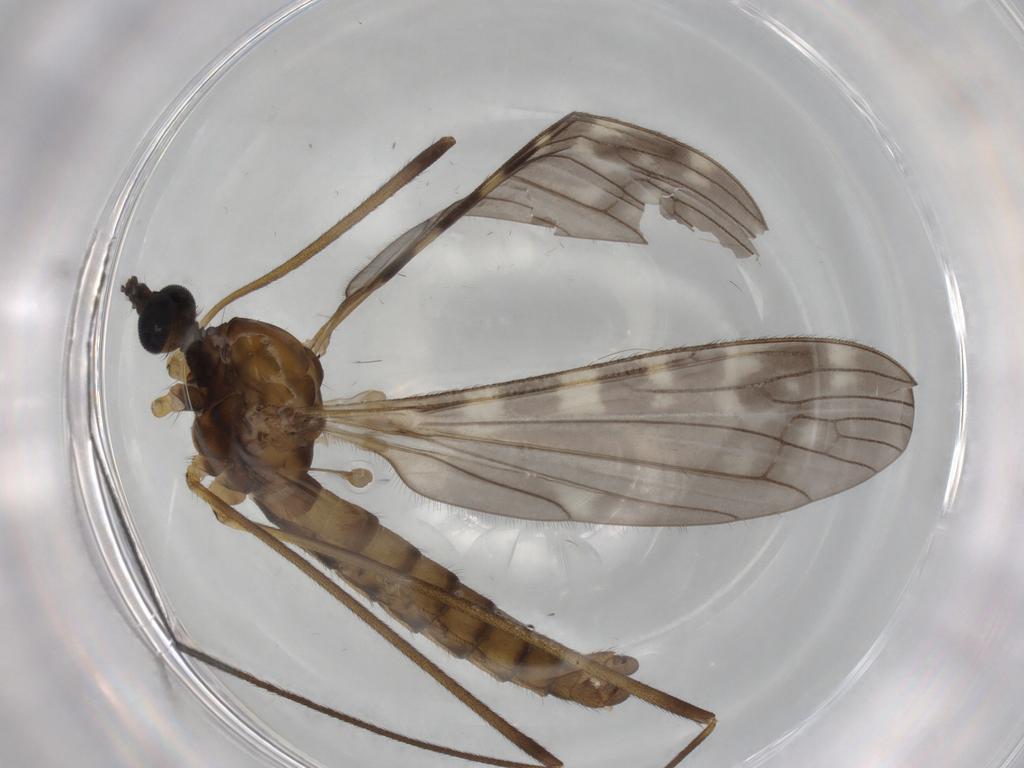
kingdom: Animalia
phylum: Arthropoda
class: Insecta
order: Diptera
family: Chironomidae
